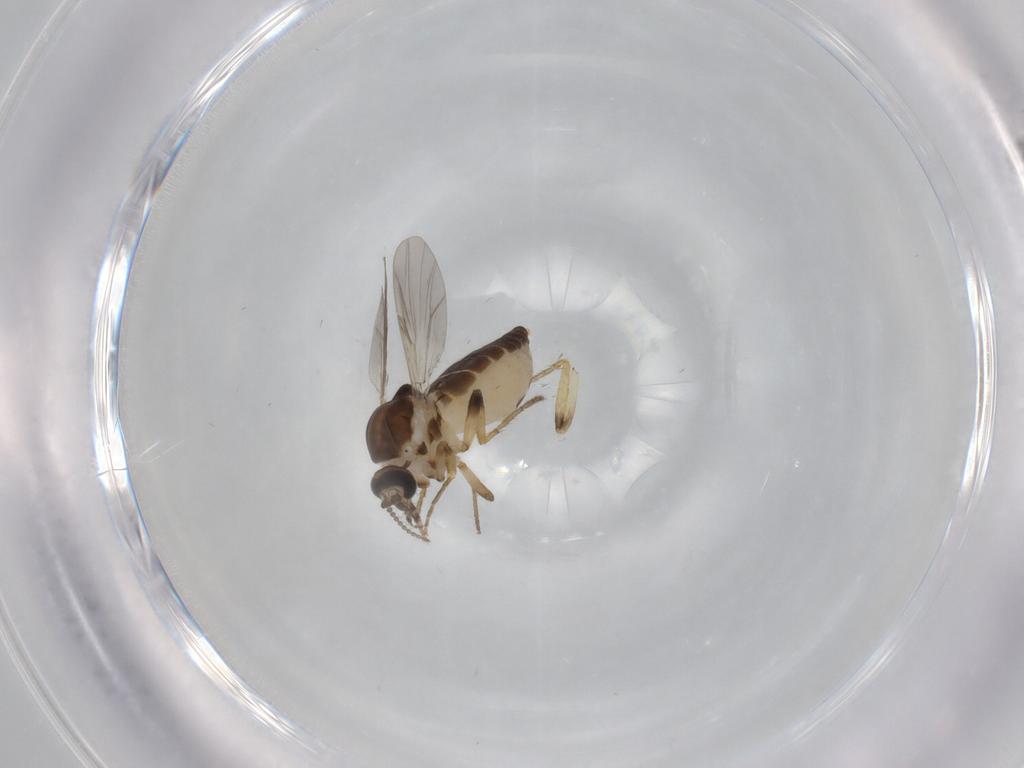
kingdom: Animalia
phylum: Arthropoda
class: Insecta
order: Diptera
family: Ceratopogonidae
